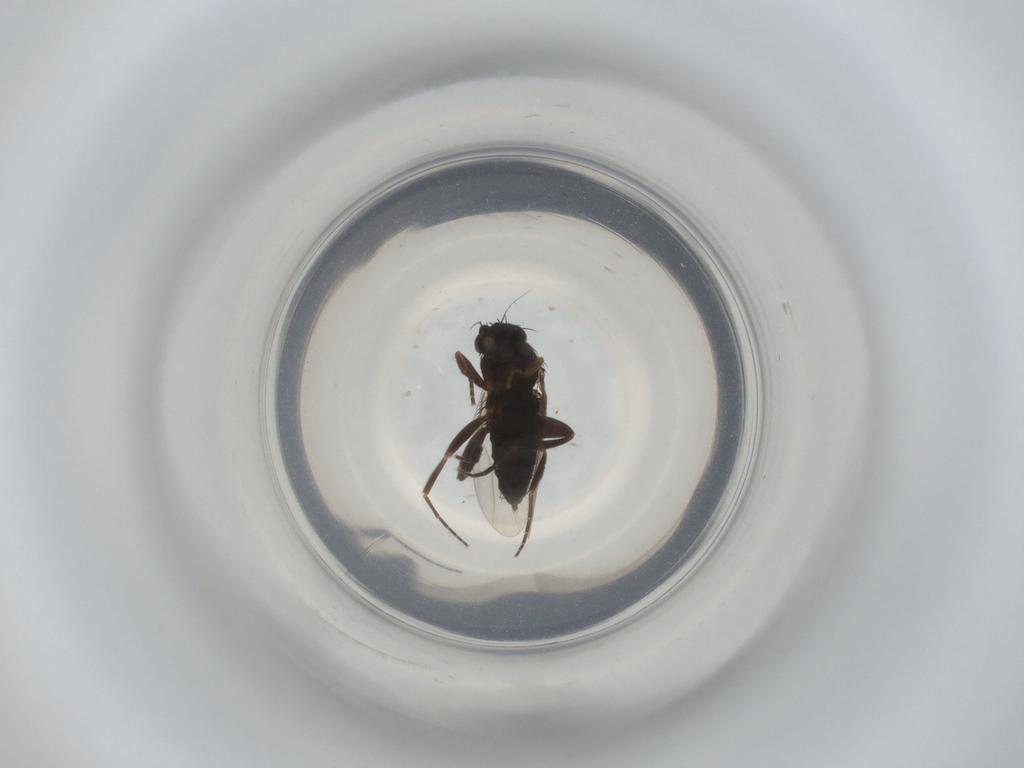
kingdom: Animalia
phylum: Arthropoda
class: Insecta
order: Diptera
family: Phoridae
